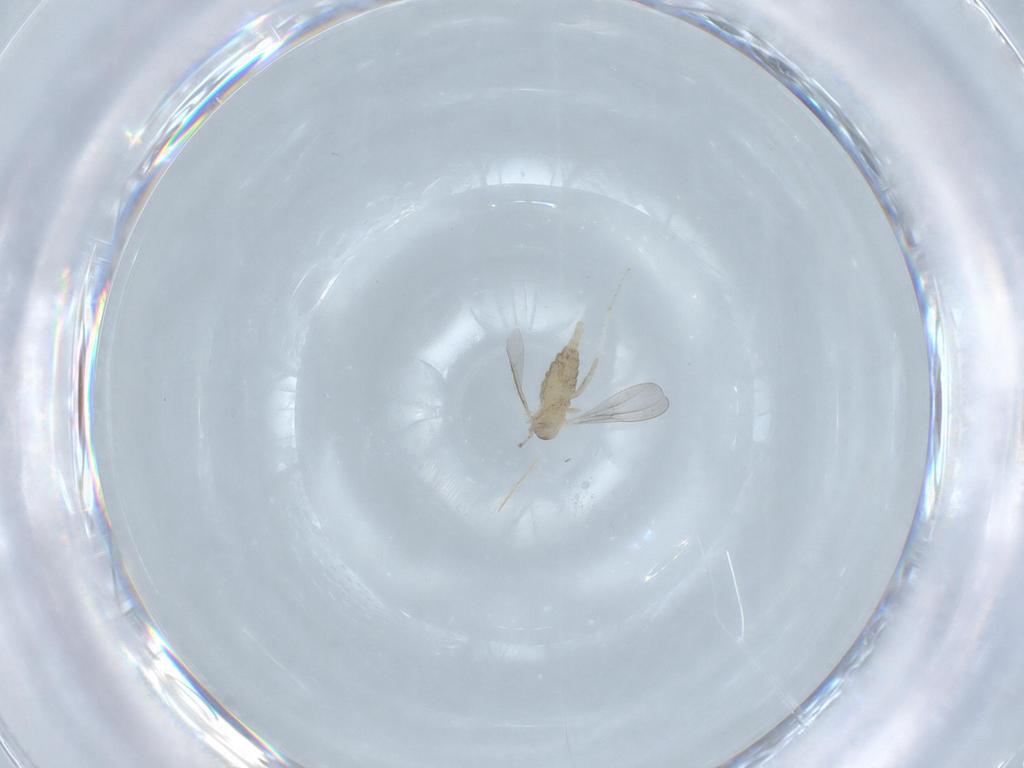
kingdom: Animalia
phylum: Arthropoda
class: Insecta
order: Diptera
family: Cecidomyiidae
